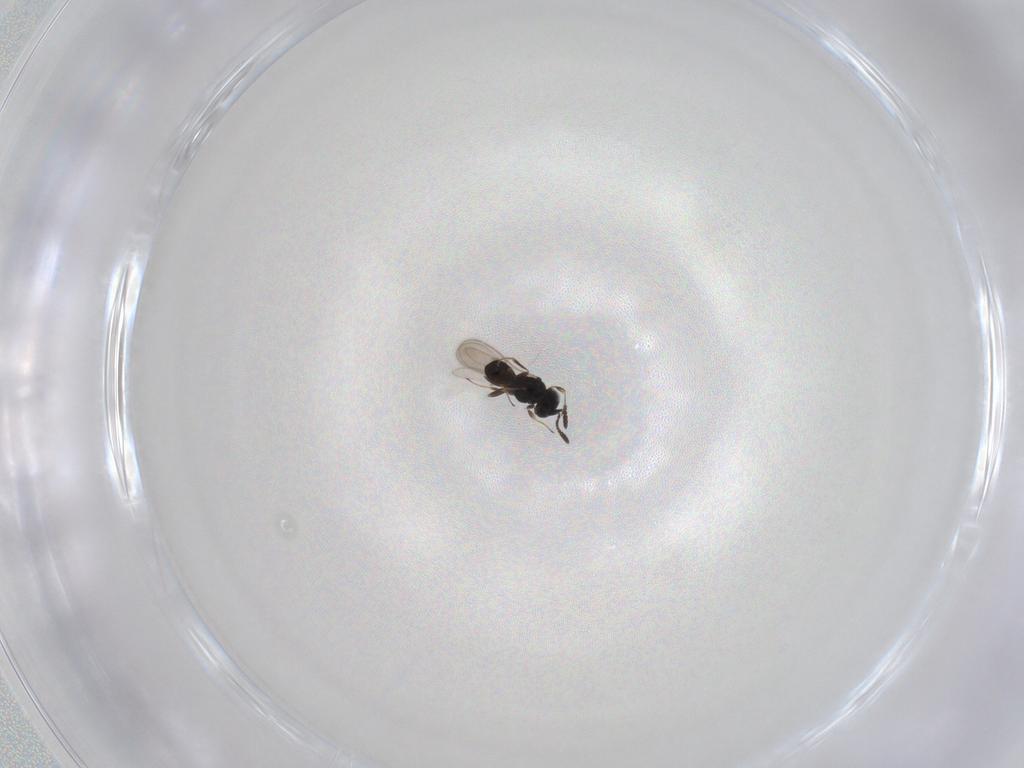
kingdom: Animalia
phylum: Arthropoda
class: Insecta
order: Hymenoptera
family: Scelionidae
